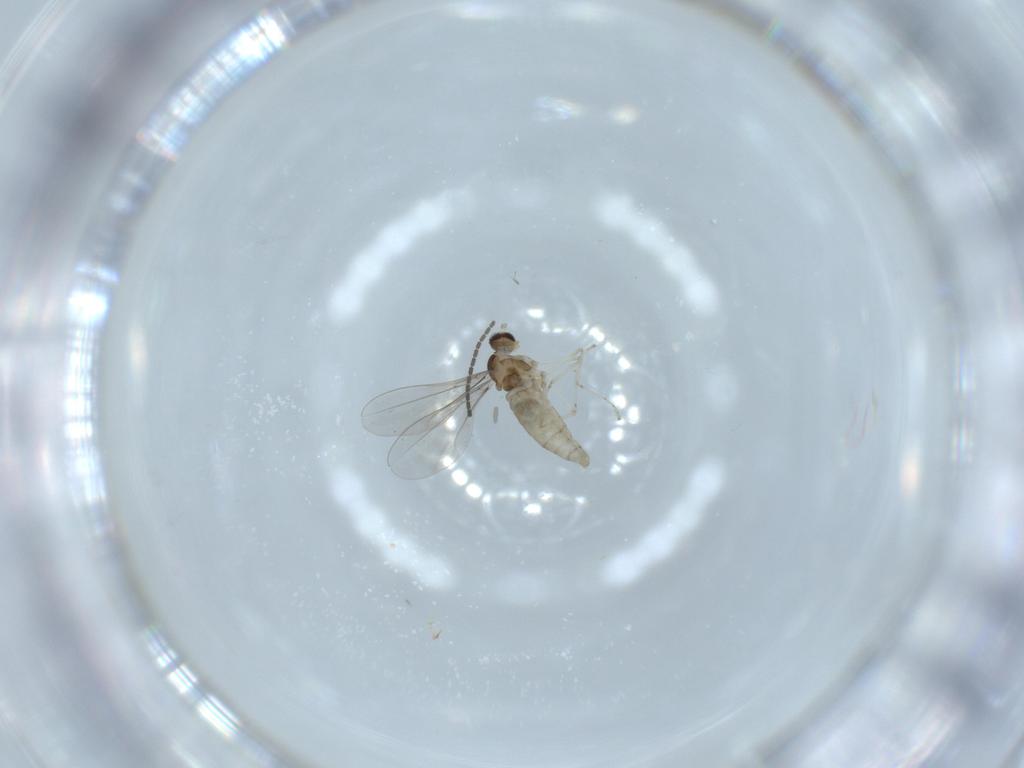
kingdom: Animalia
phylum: Arthropoda
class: Insecta
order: Diptera
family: Sciaridae
